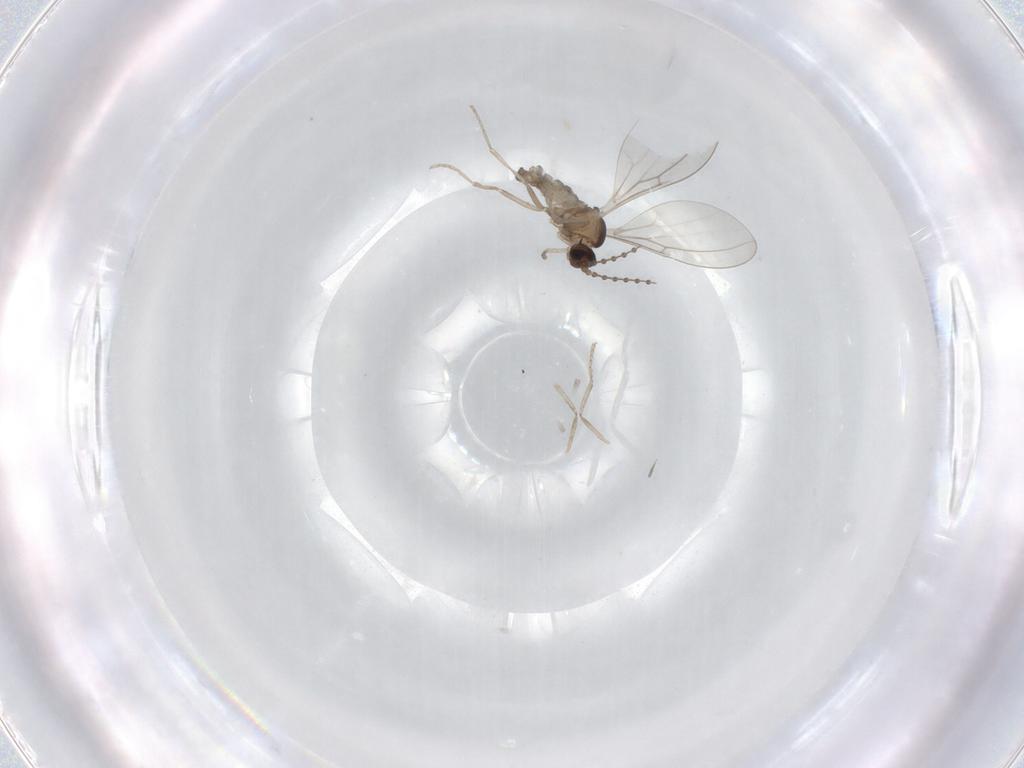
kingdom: Animalia
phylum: Arthropoda
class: Insecta
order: Diptera
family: Cecidomyiidae
